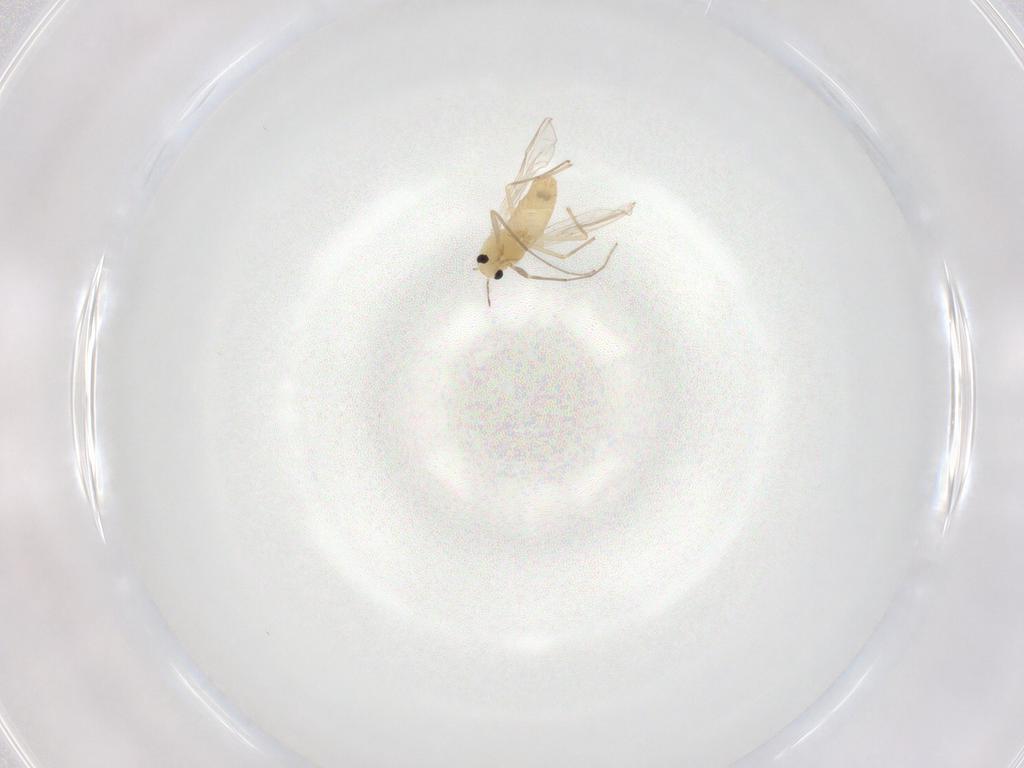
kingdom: Animalia
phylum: Arthropoda
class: Insecta
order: Diptera
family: Chironomidae
